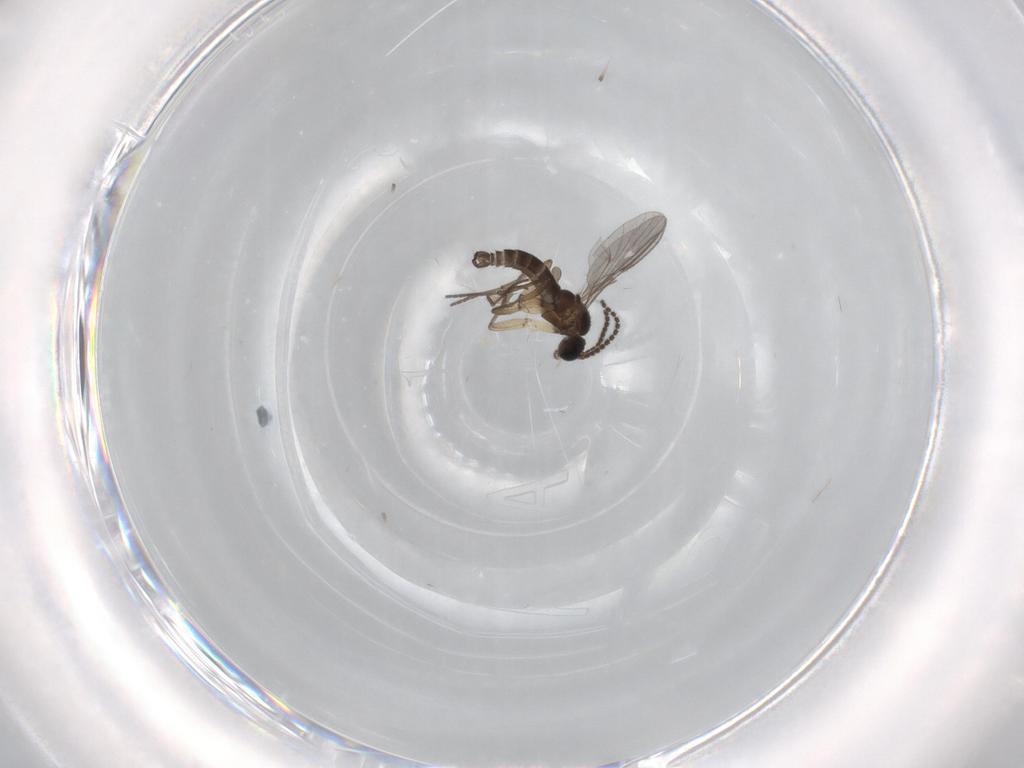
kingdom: Animalia
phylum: Arthropoda
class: Insecta
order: Diptera
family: Sciaridae
